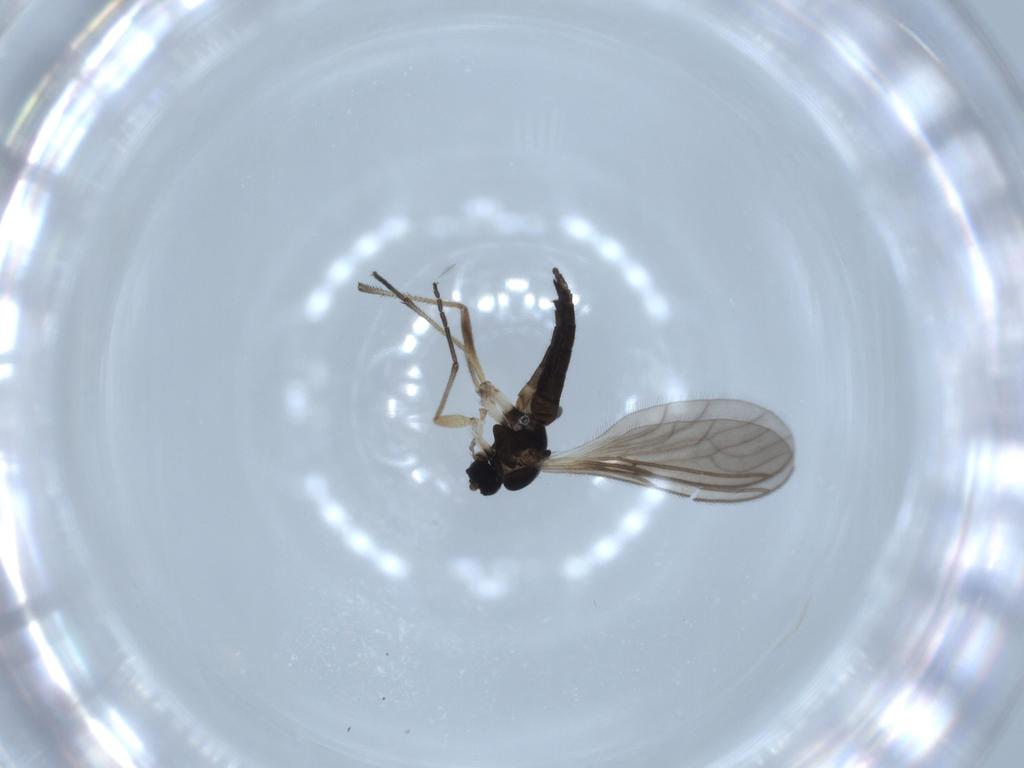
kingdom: Animalia
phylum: Arthropoda
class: Insecta
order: Diptera
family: Sciaridae
